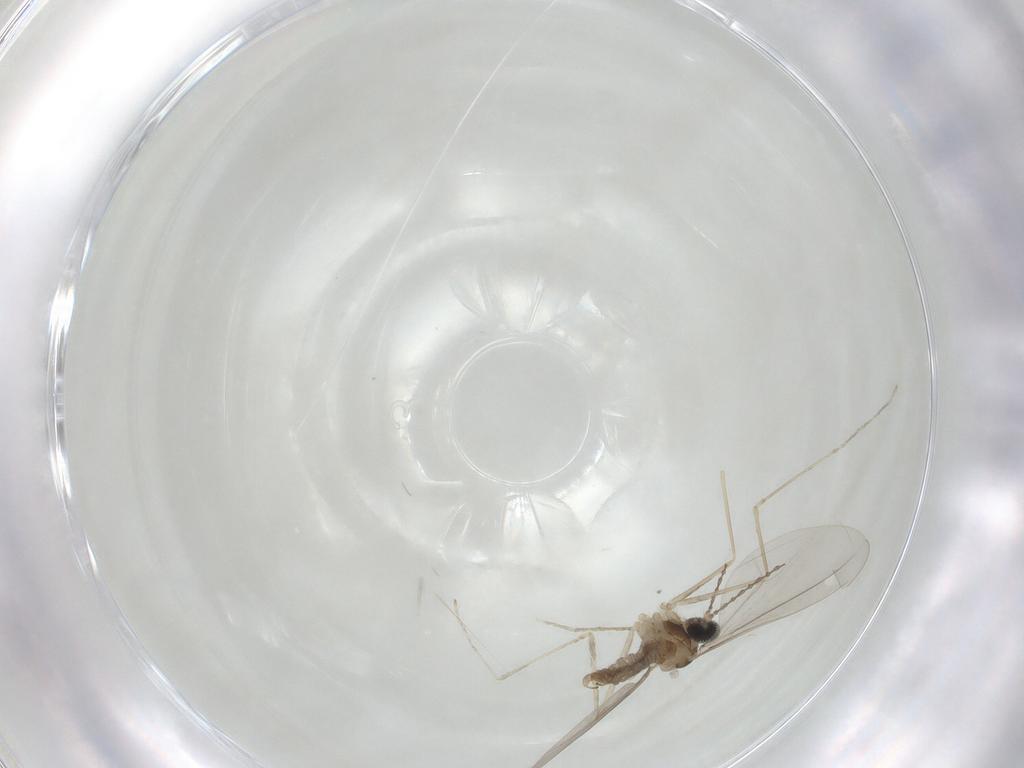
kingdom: Animalia
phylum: Arthropoda
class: Insecta
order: Diptera
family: Cecidomyiidae
